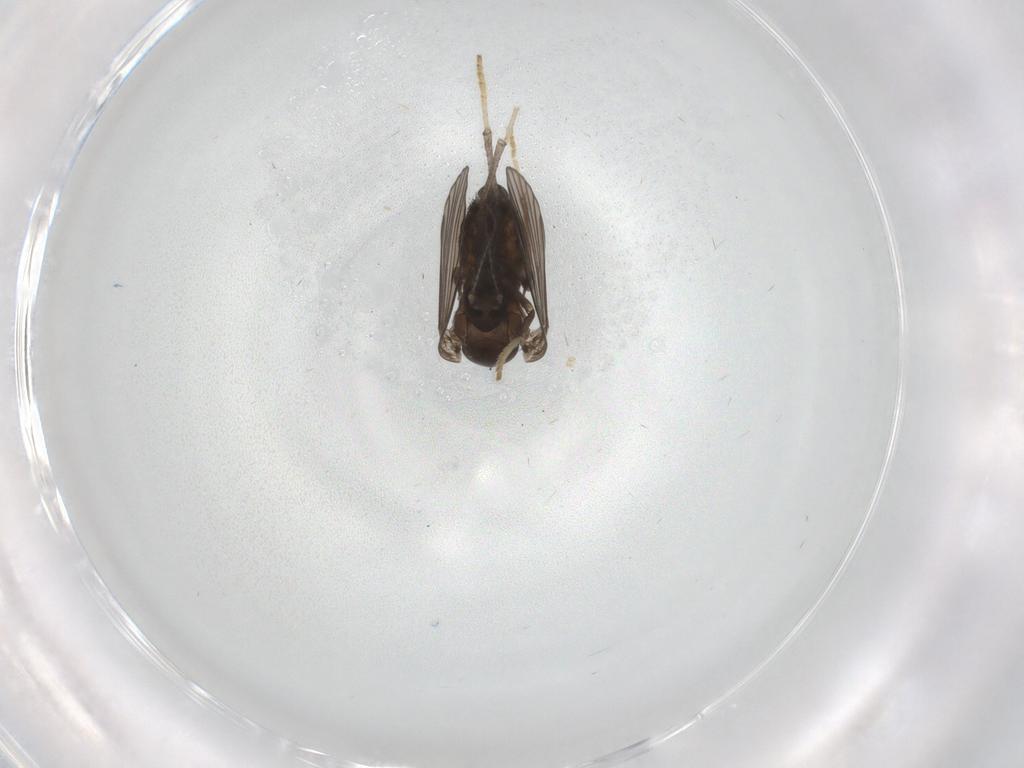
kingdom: Animalia
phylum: Arthropoda
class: Insecta
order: Diptera
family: Psychodidae
